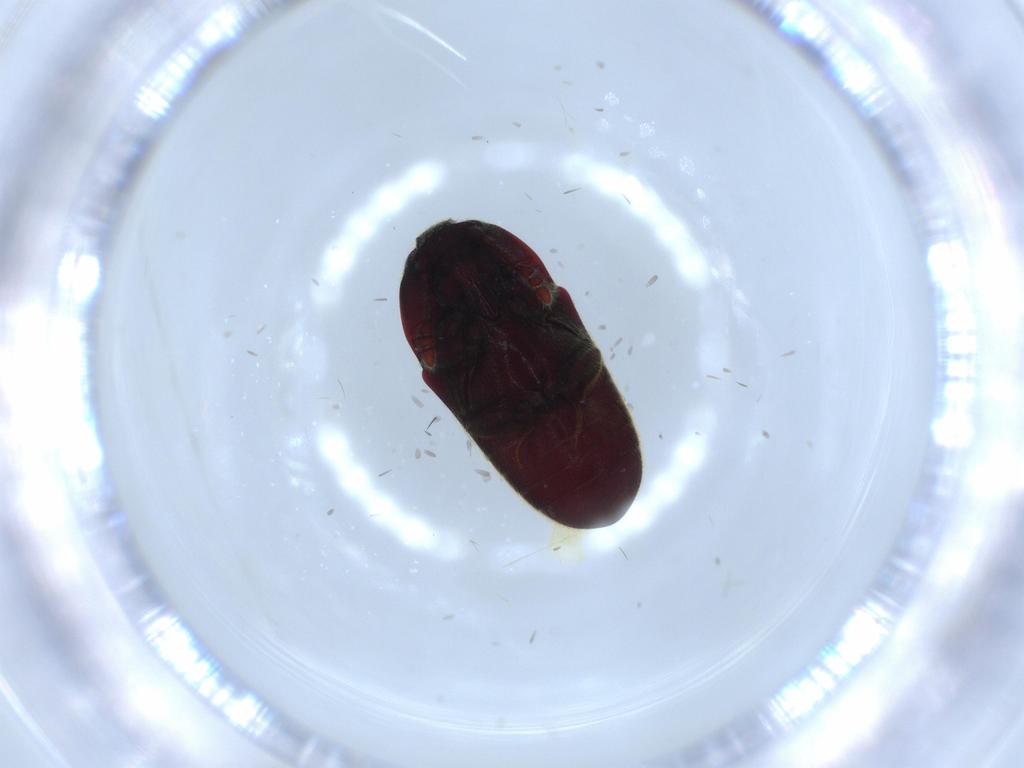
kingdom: Animalia
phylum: Arthropoda
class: Insecta
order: Coleoptera
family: Throscidae
